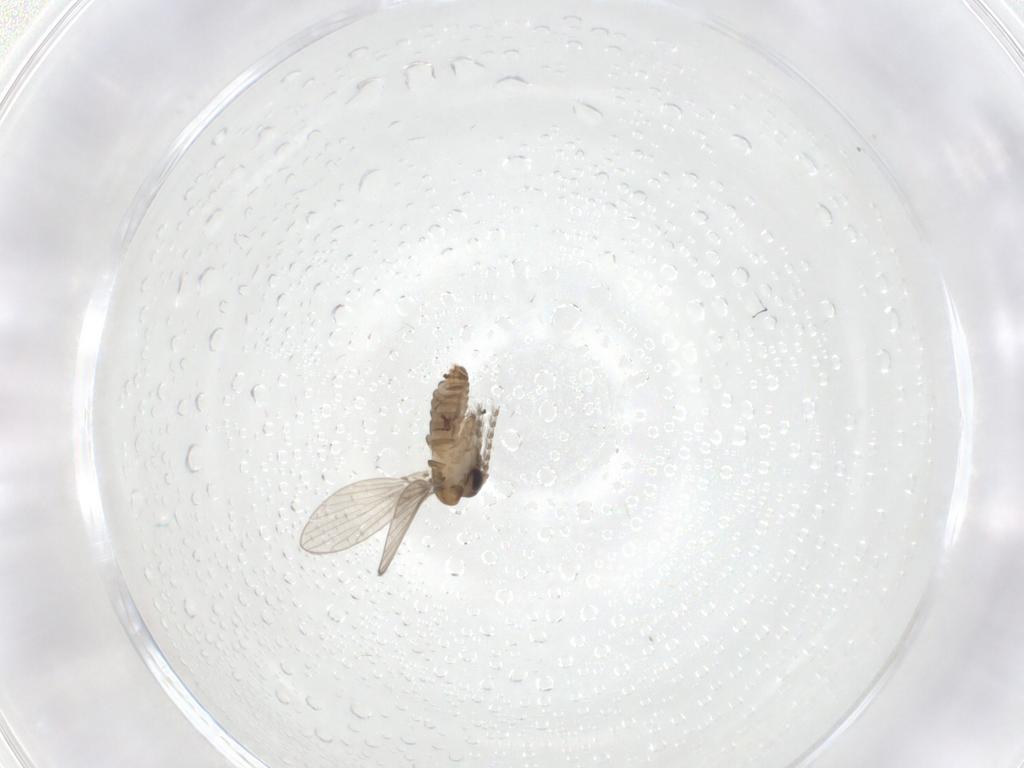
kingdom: Animalia
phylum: Arthropoda
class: Insecta
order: Diptera
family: Psychodidae
